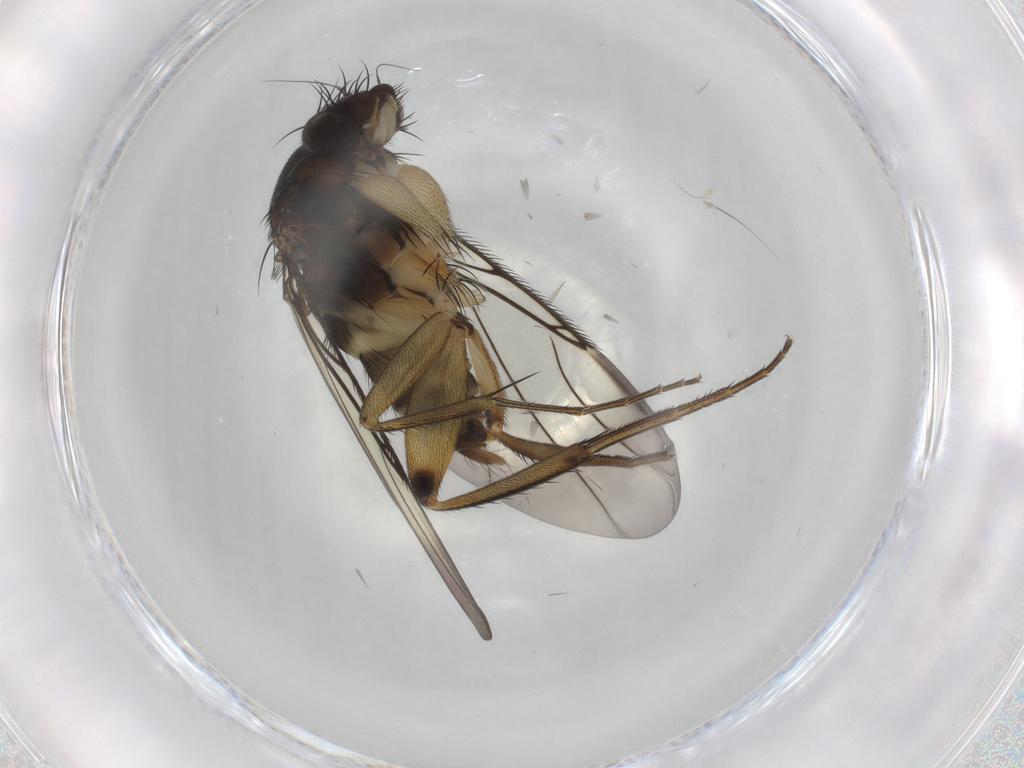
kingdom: Animalia
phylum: Arthropoda
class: Insecta
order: Diptera
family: Phoridae
